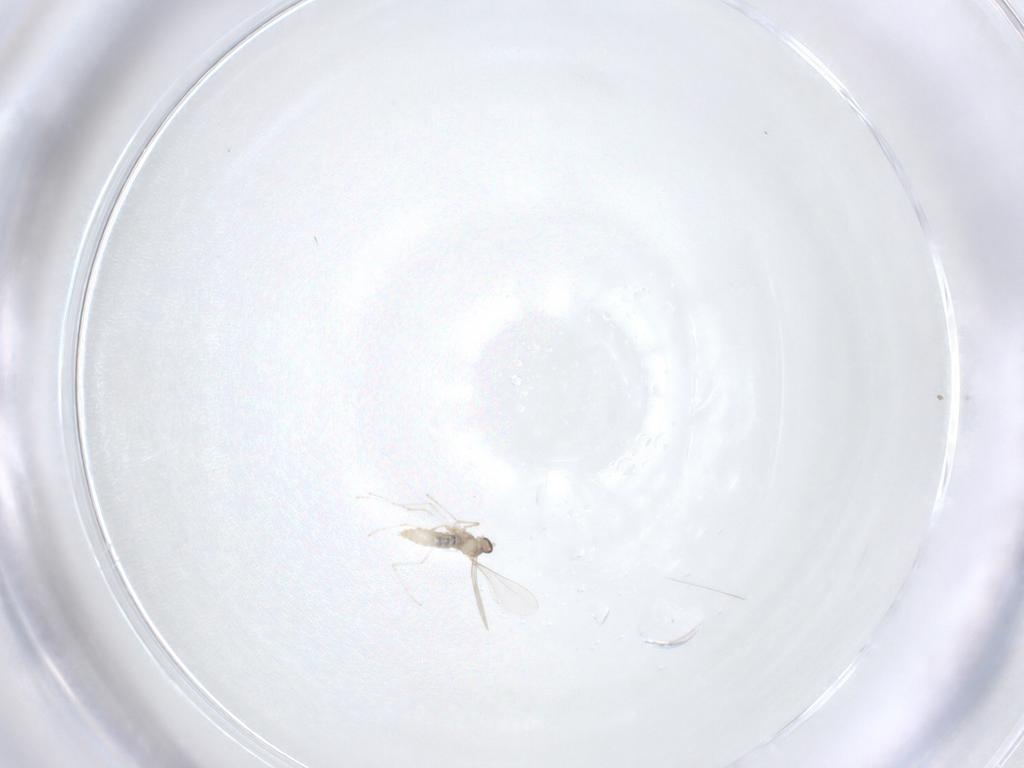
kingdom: Animalia
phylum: Arthropoda
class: Insecta
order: Diptera
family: Cecidomyiidae
